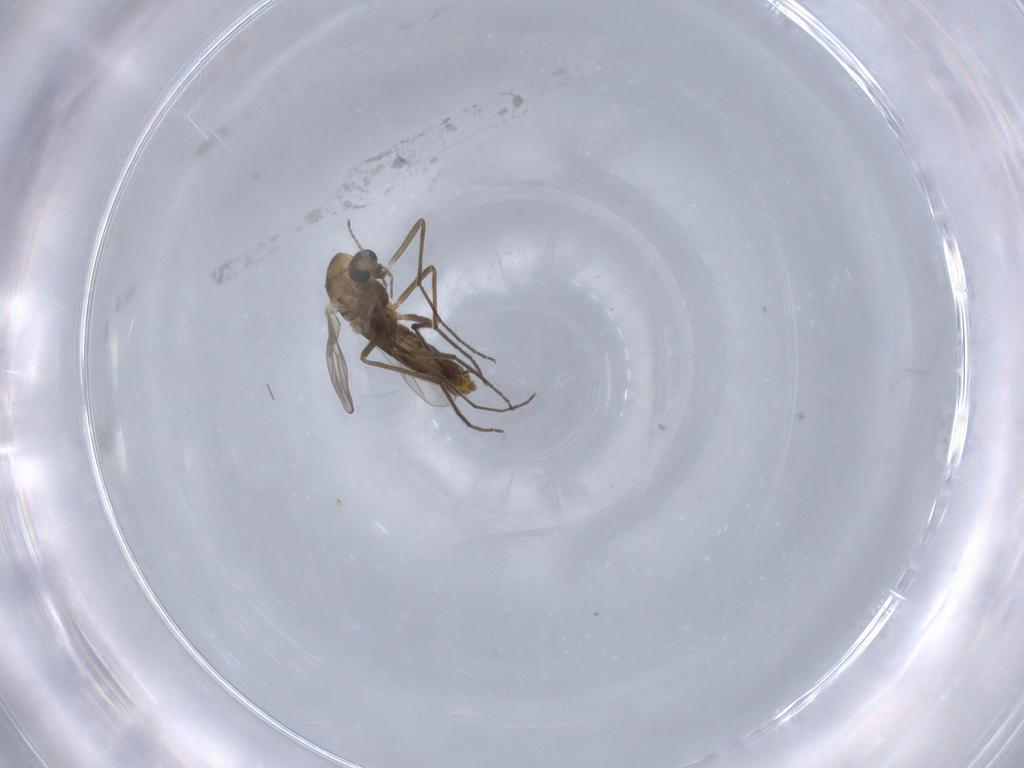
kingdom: Animalia
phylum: Arthropoda
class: Insecta
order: Diptera
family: Chironomidae
